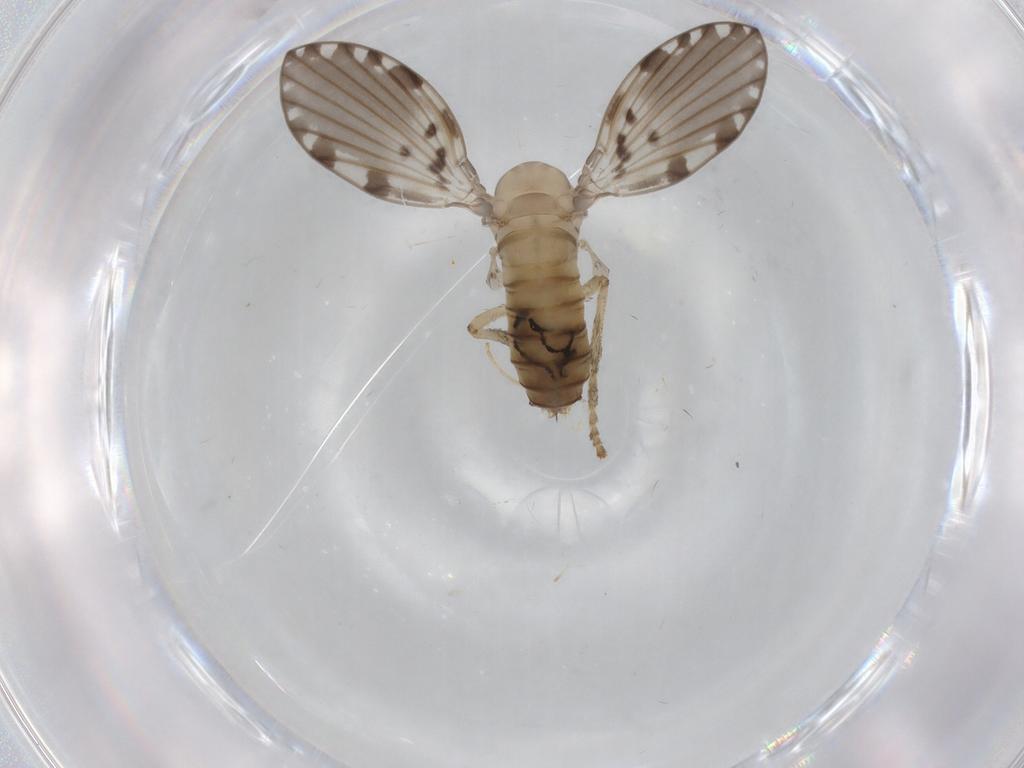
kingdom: Animalia
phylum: Arthropoda
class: Insecta
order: Diptera
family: Psychodidae
